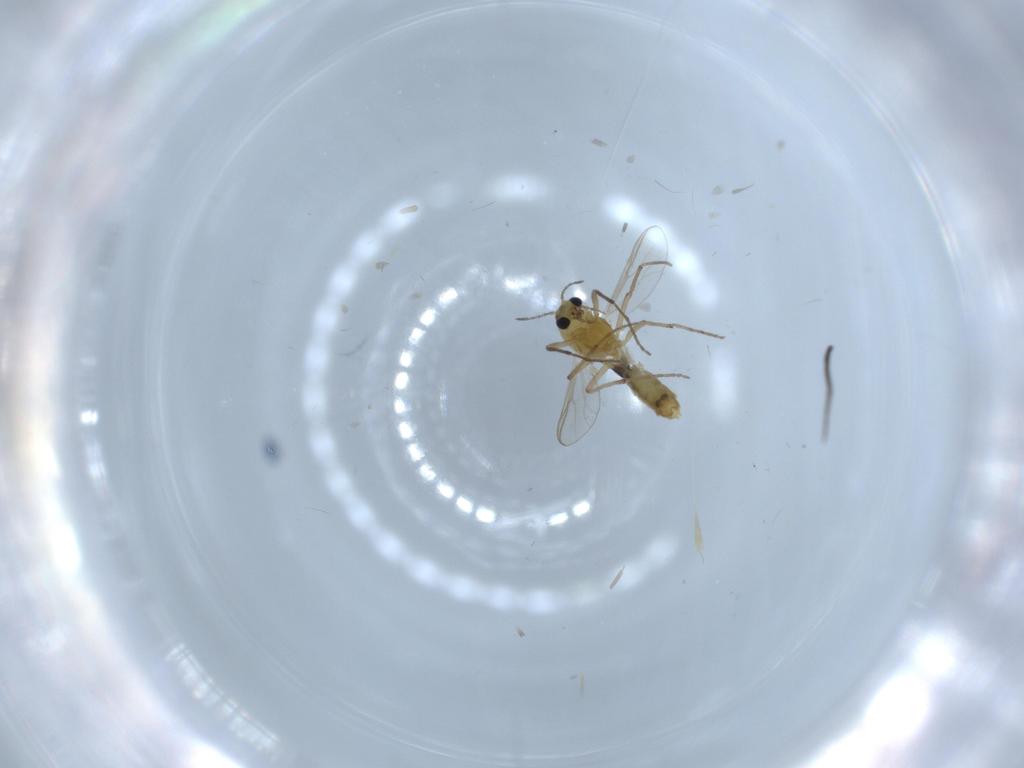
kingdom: Animalia
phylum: Arthropoda
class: Insecta
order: Diptera
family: Chironomidae
